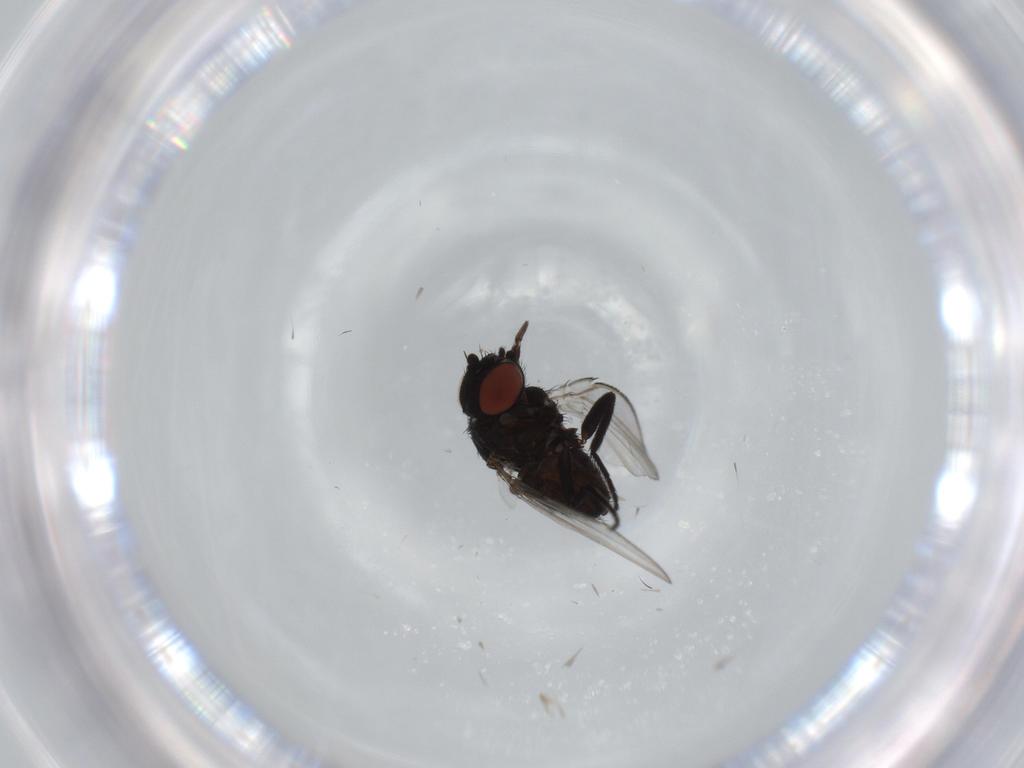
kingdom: Animalia
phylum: Arthropoda
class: Insecta
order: Diptera
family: Milichiidae
